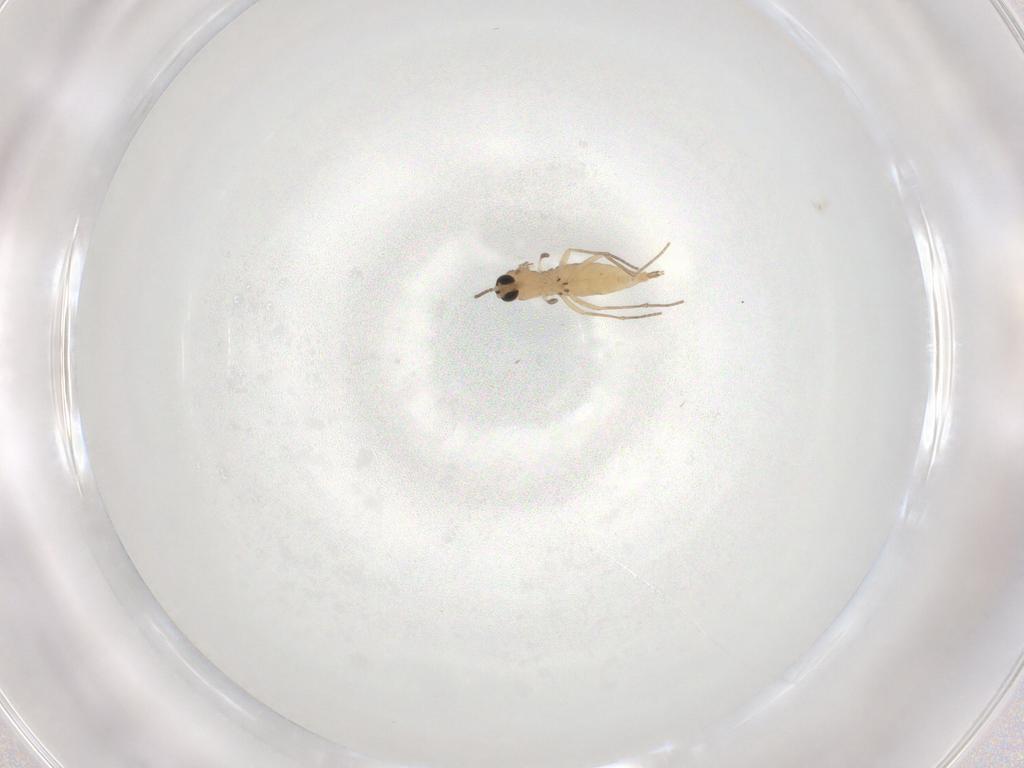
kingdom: Animalia
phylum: Arthropoda
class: Insecta
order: Diptera
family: Sciaridae
